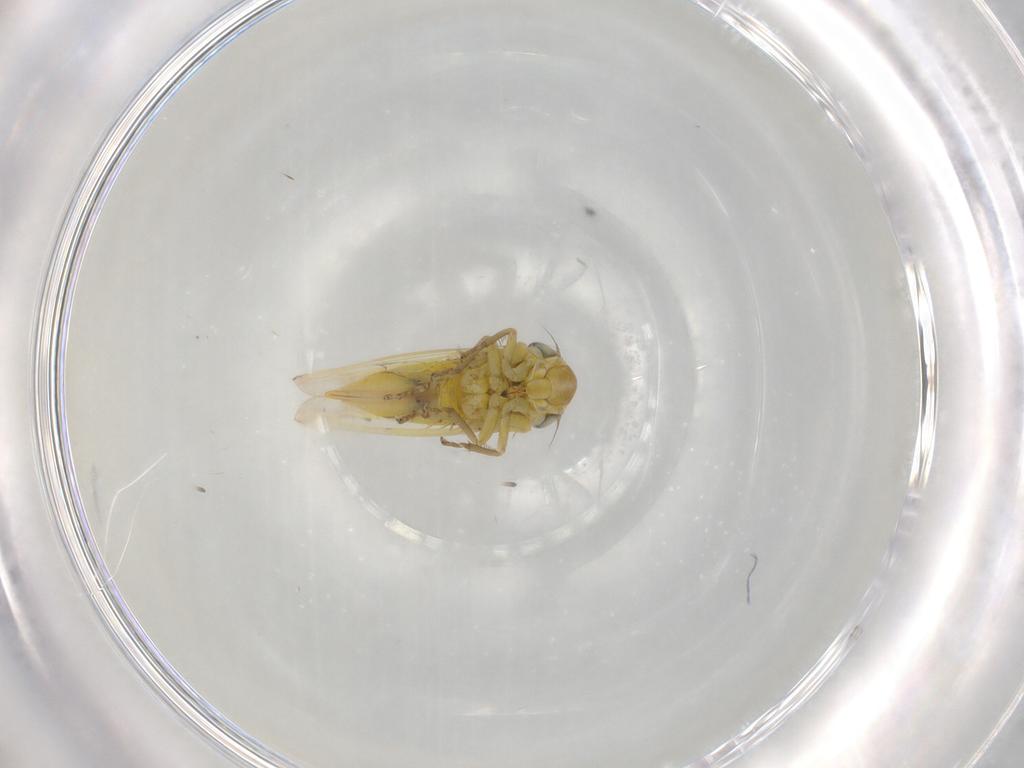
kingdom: Animalia
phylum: Arthropoda
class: Insecta
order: Hemiptera
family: Cicadellidae
